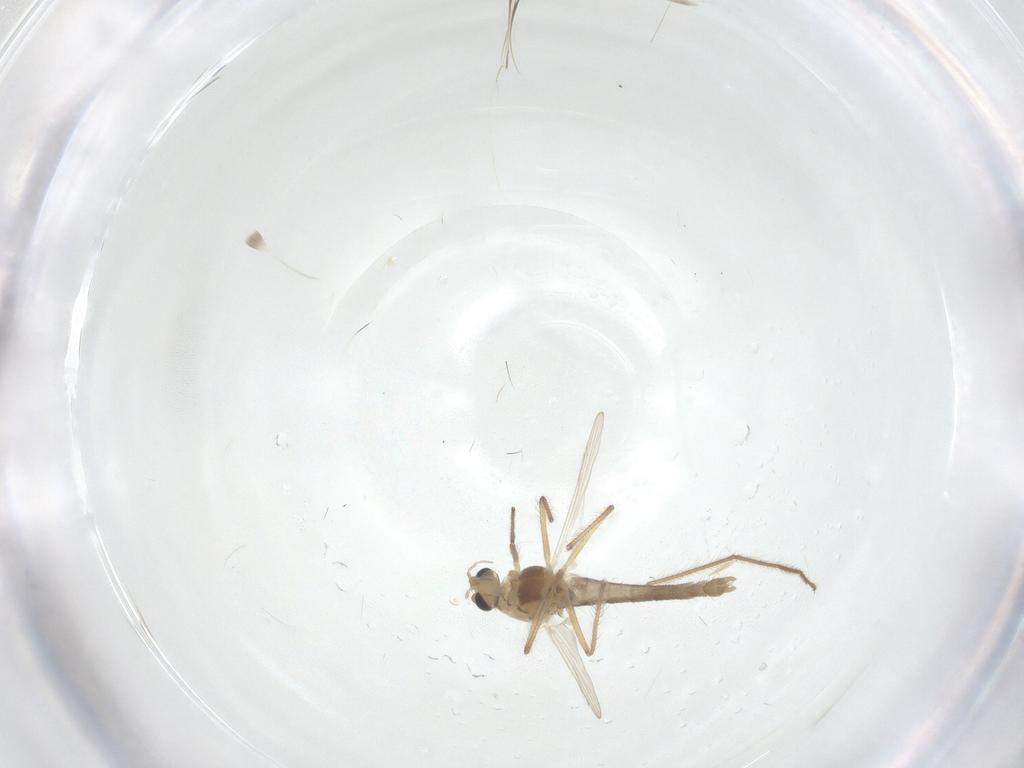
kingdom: Animalia
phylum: Arthropoda
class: Insecta
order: Diptera
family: Chironomidae
